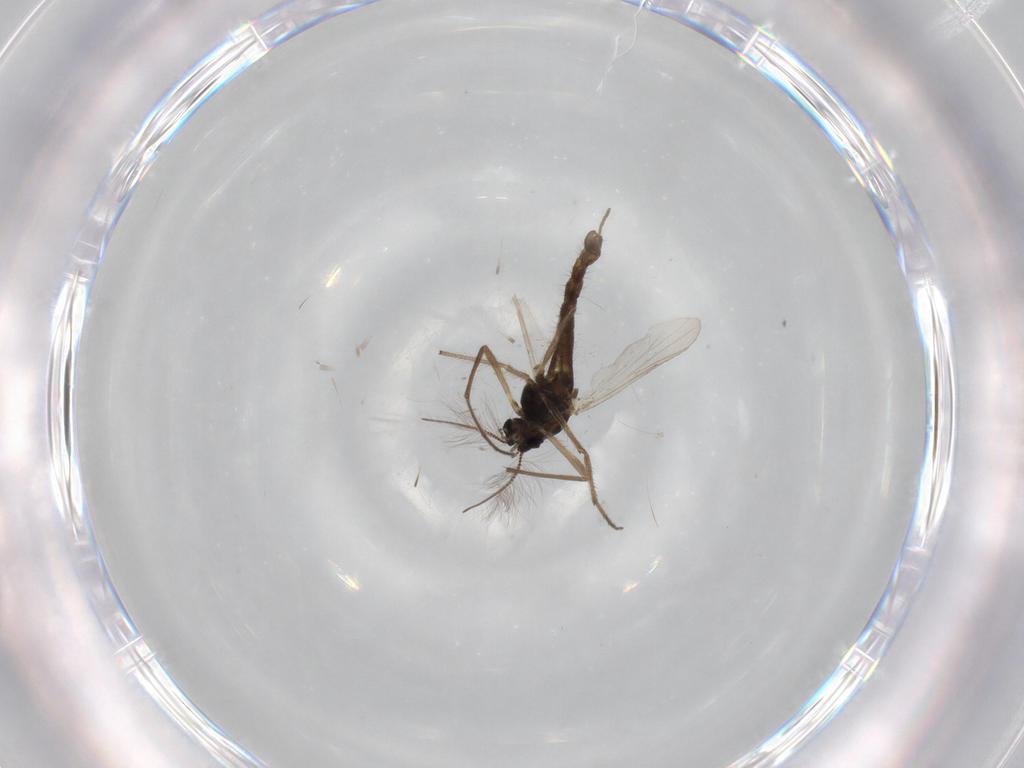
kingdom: Animalia
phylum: Arthropoda
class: Insecta
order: Diptera
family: Chironomidae
